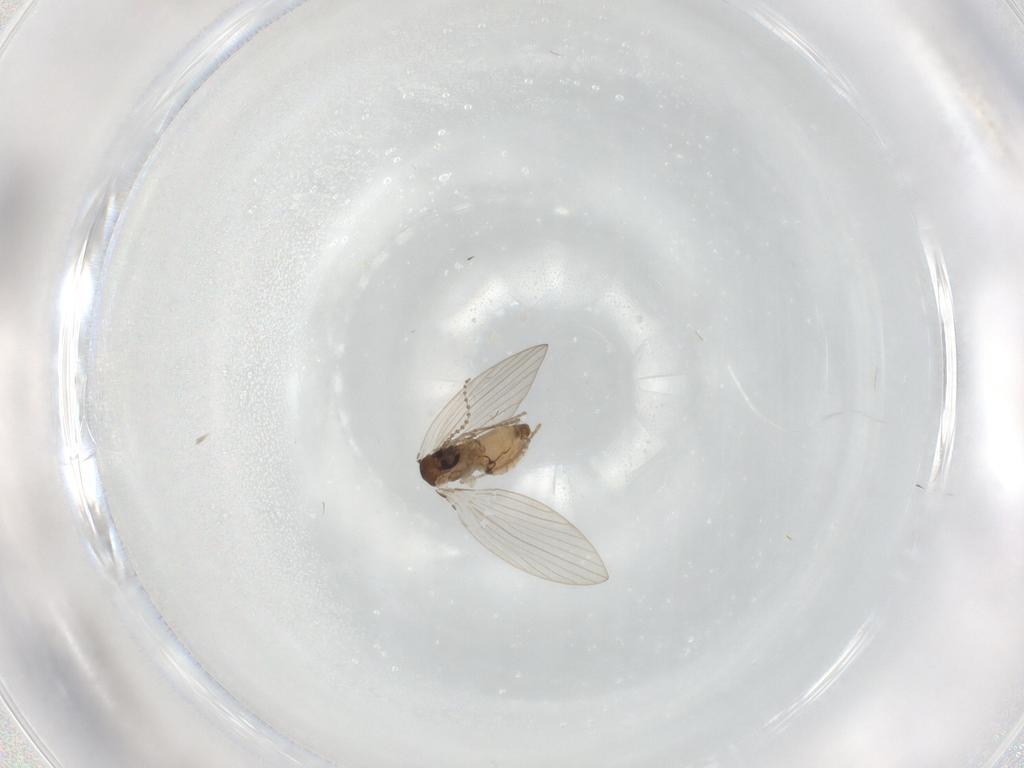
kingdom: Animalia
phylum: Arthropoda
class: Insecta
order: Diptera
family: Psychodidae
